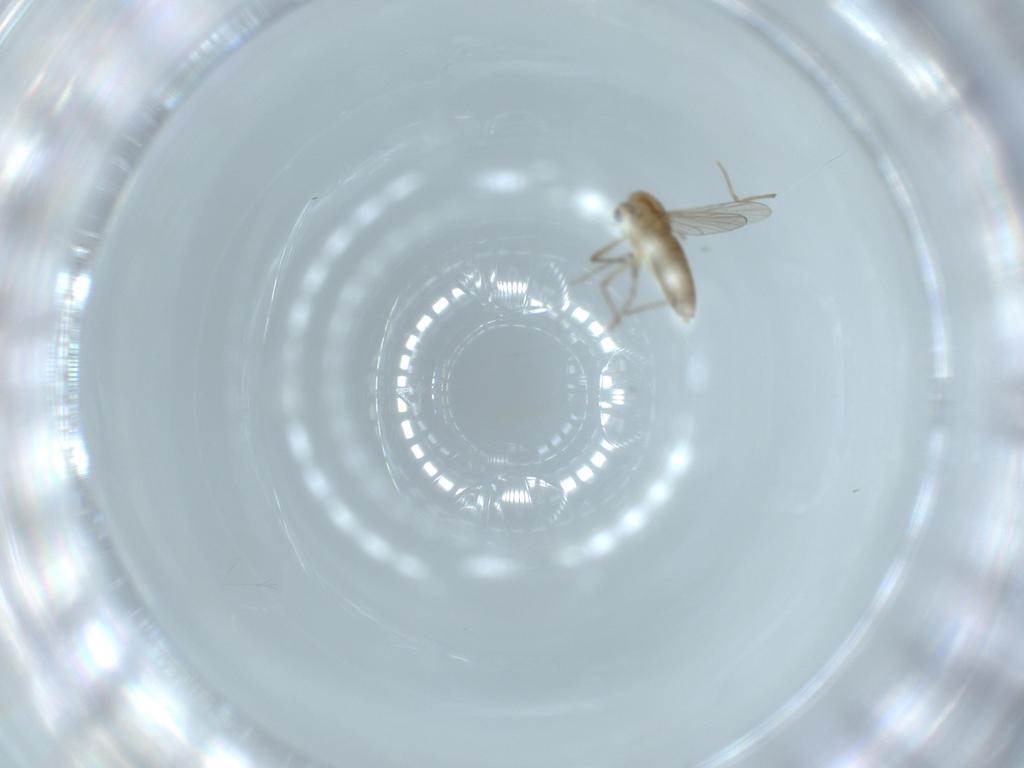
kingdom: Animalia
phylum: Arthropoda
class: Insecta
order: Diptera
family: Chironomidae
